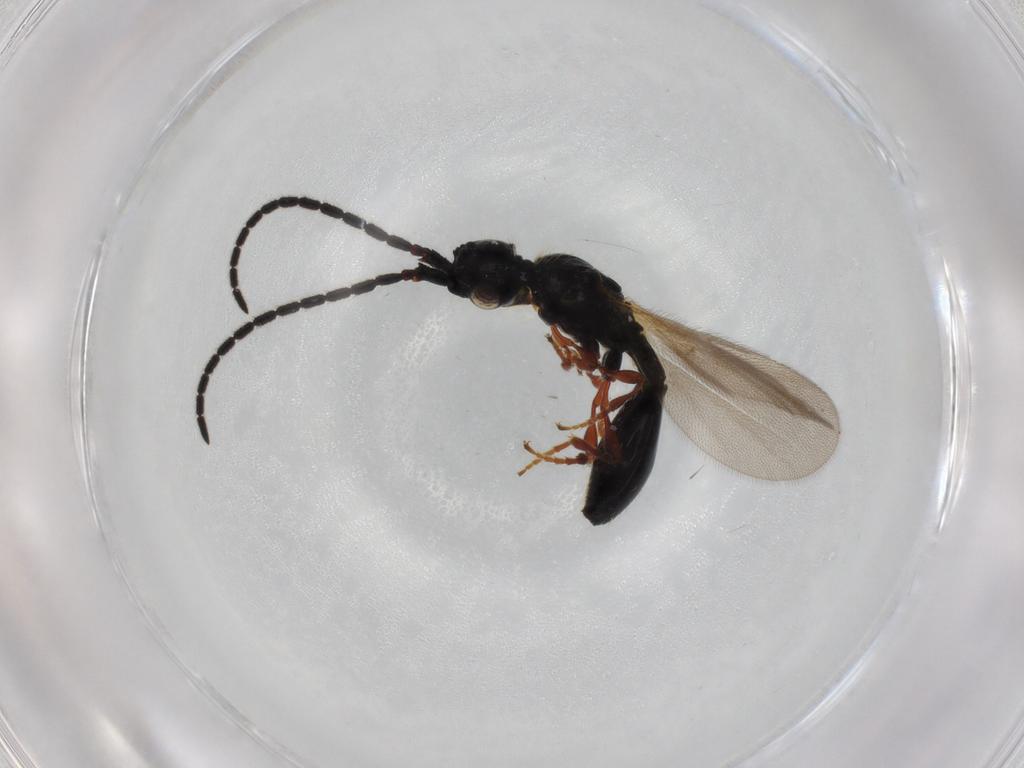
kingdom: Animalia
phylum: Arthropoda
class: Insecta
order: Hymenoptera
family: Diapriidae
